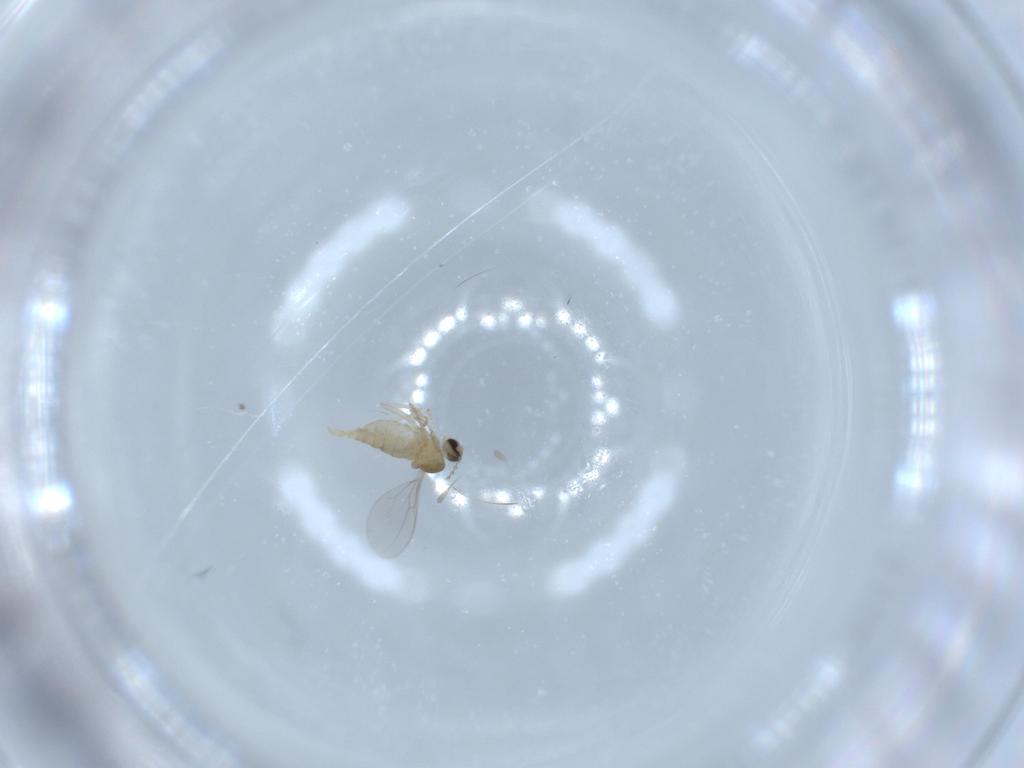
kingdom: Animalia
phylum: Arthropoda
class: Insecta
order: Diptera
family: Cecidomyiidae
